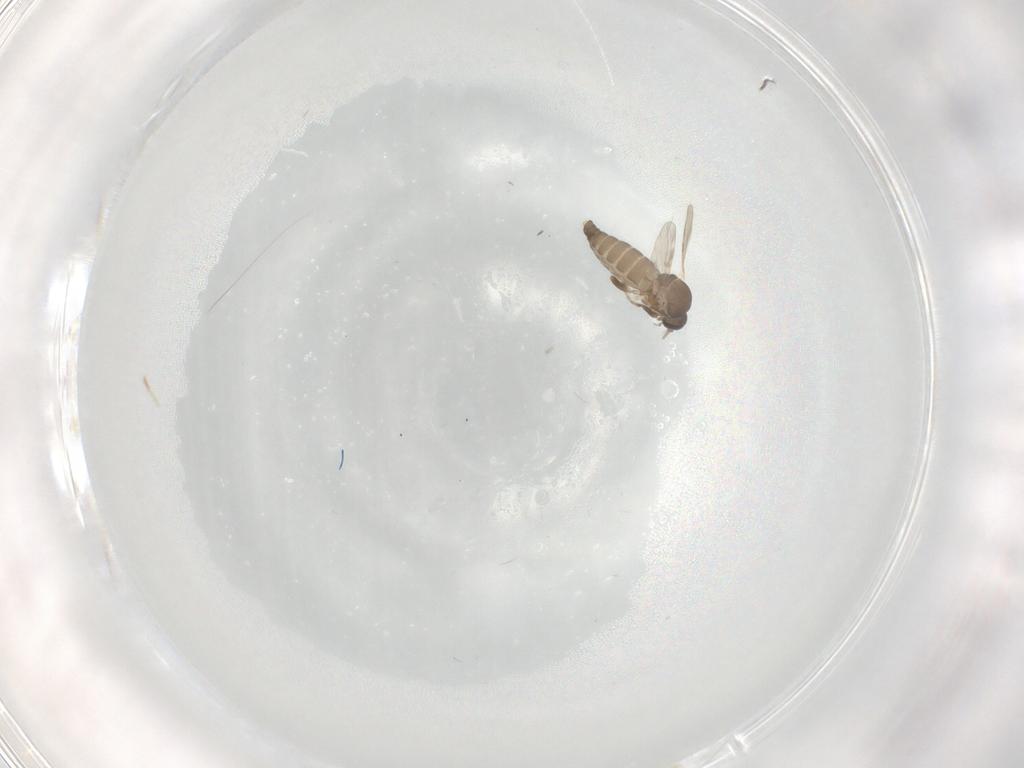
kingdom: Animalia
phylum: Arthropoda
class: Insecta
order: Diptera
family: Ceratopogonidae
